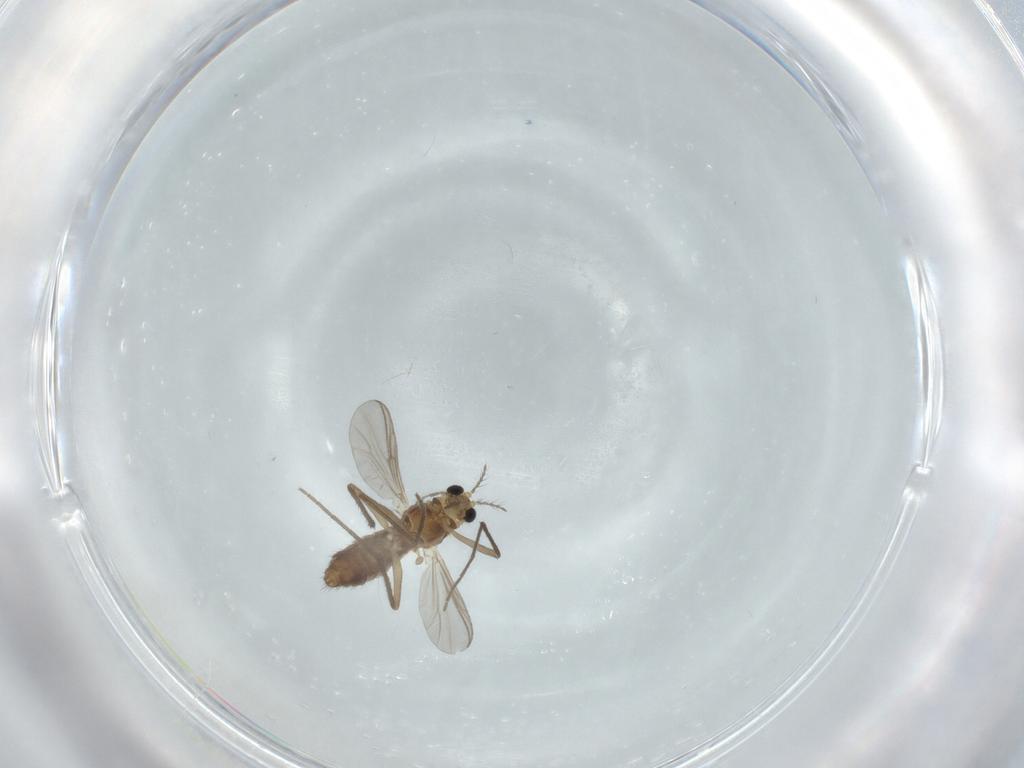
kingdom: Animalia
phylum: Arthropoda
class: Insecta
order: Diptera
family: Chironomidae
